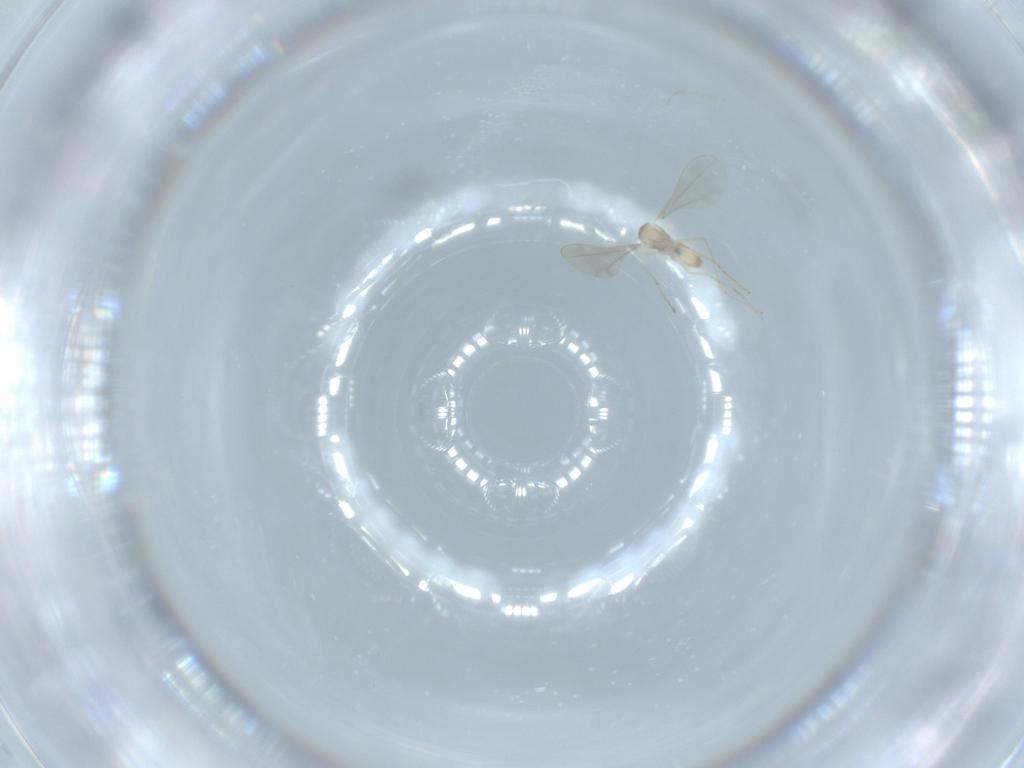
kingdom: Animalia
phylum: Arthropoda
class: Insecta
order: Diptera
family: Cecidomyiidae
